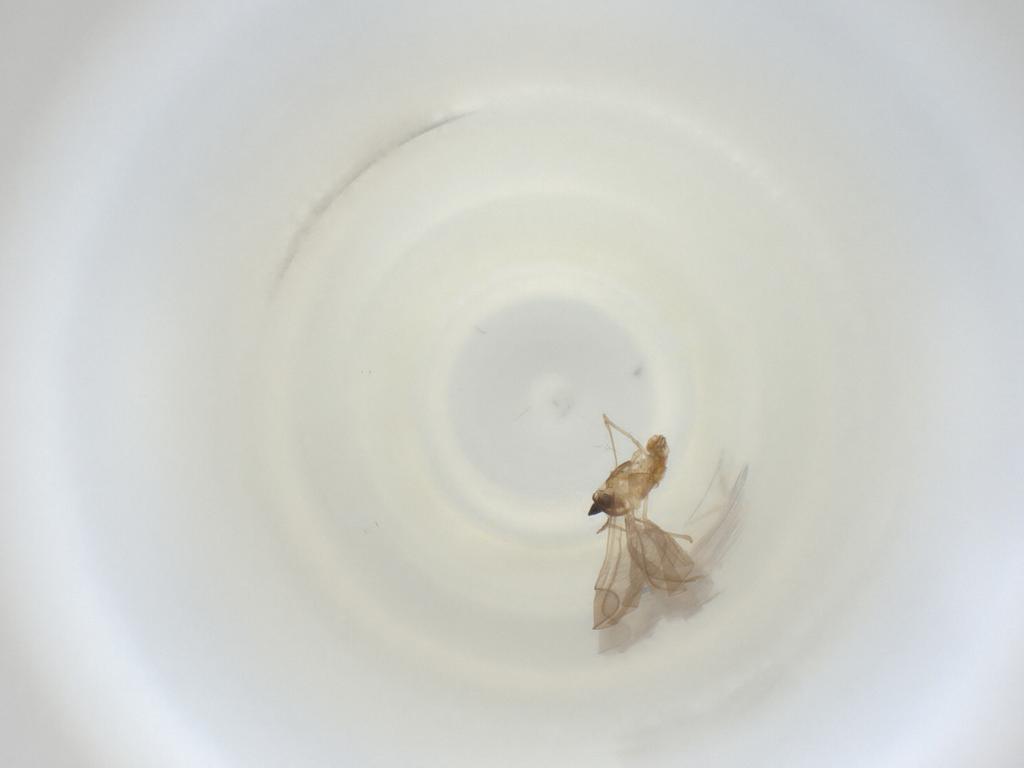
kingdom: Animalia
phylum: Arthropoda
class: Insecta
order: Diptera
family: Cecidomyiidae
